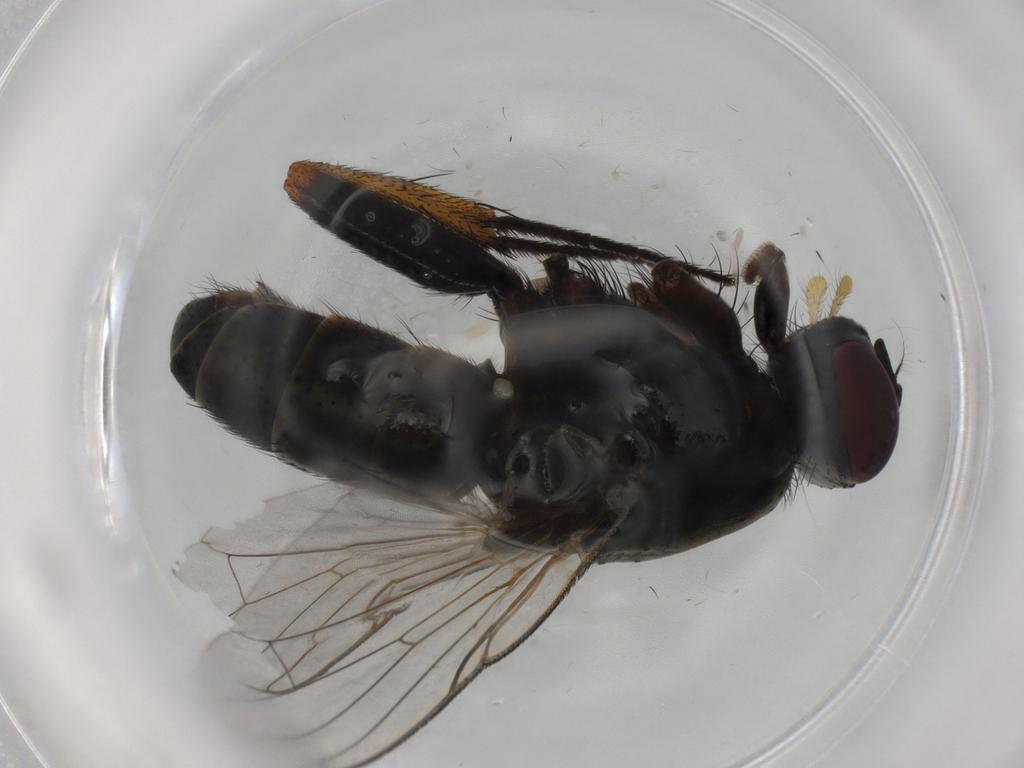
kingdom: Animalia
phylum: Arthropoda
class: Insecta
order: Diptera
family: Muscidae
